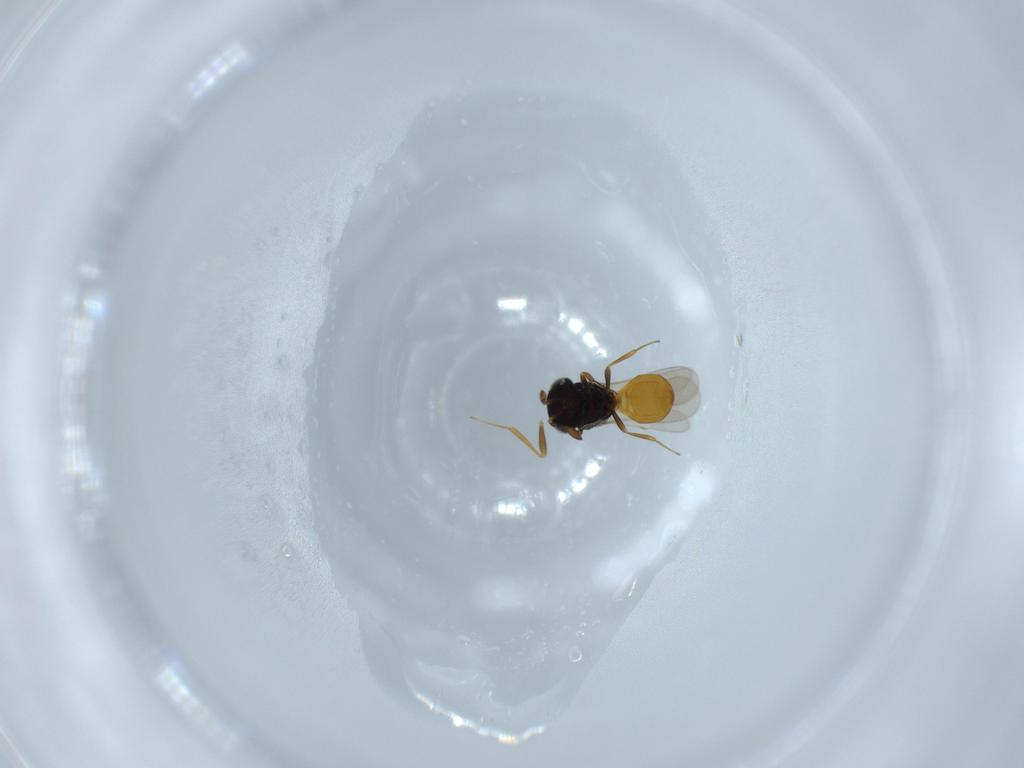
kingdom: Animalia
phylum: Arthropoda
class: Insecta
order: Hymenoptera
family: Scelionidae
